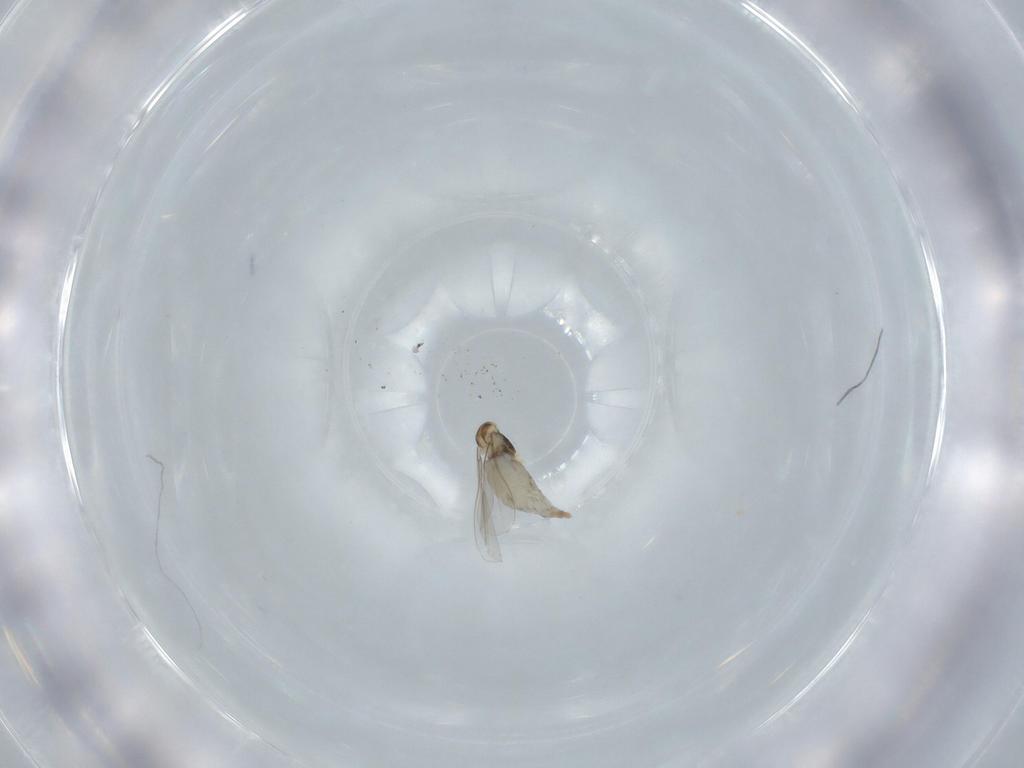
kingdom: Animalia
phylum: Arthropoda
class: Insecta
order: Diptera
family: Cecidomyiidae
